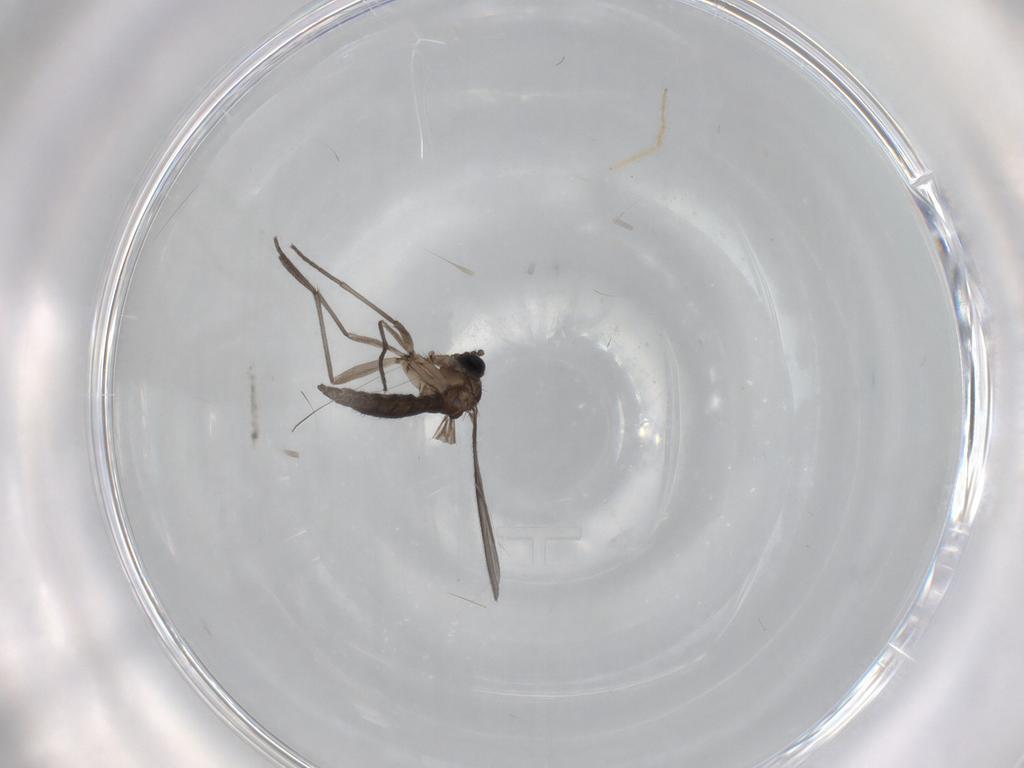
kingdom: Animalia
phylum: Arthropoda
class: Insecta
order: Diptera
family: Sciaridae
